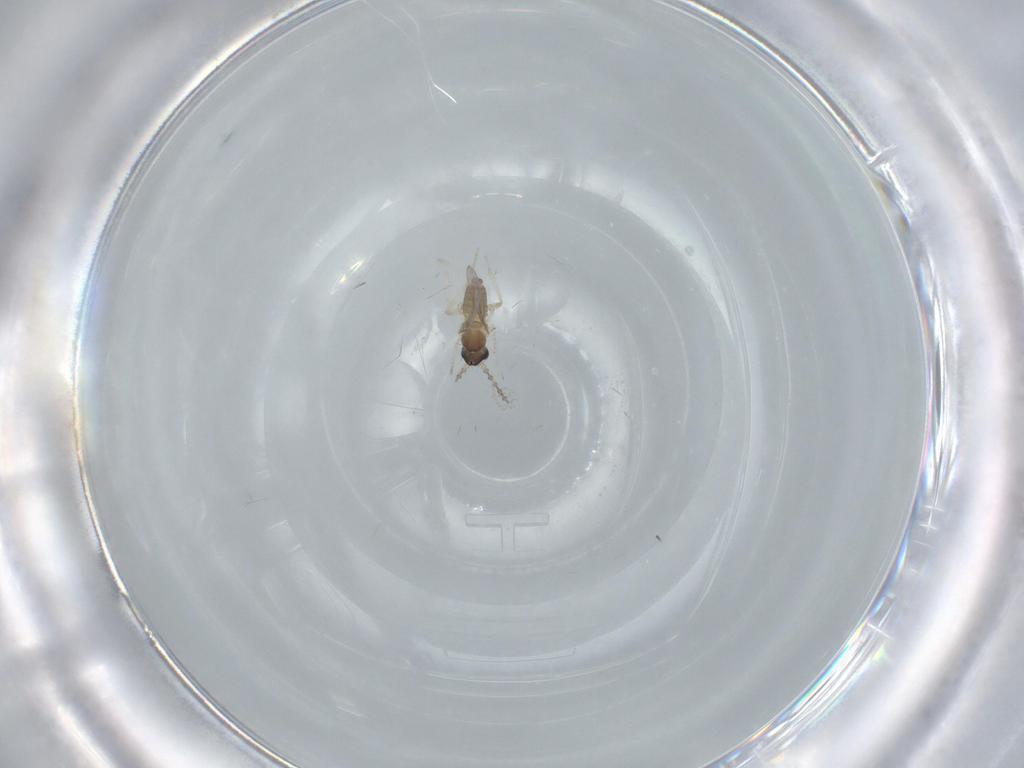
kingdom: Animalia
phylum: Arthropoda
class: Insecta
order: Diptera
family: Cecidomyiidae
